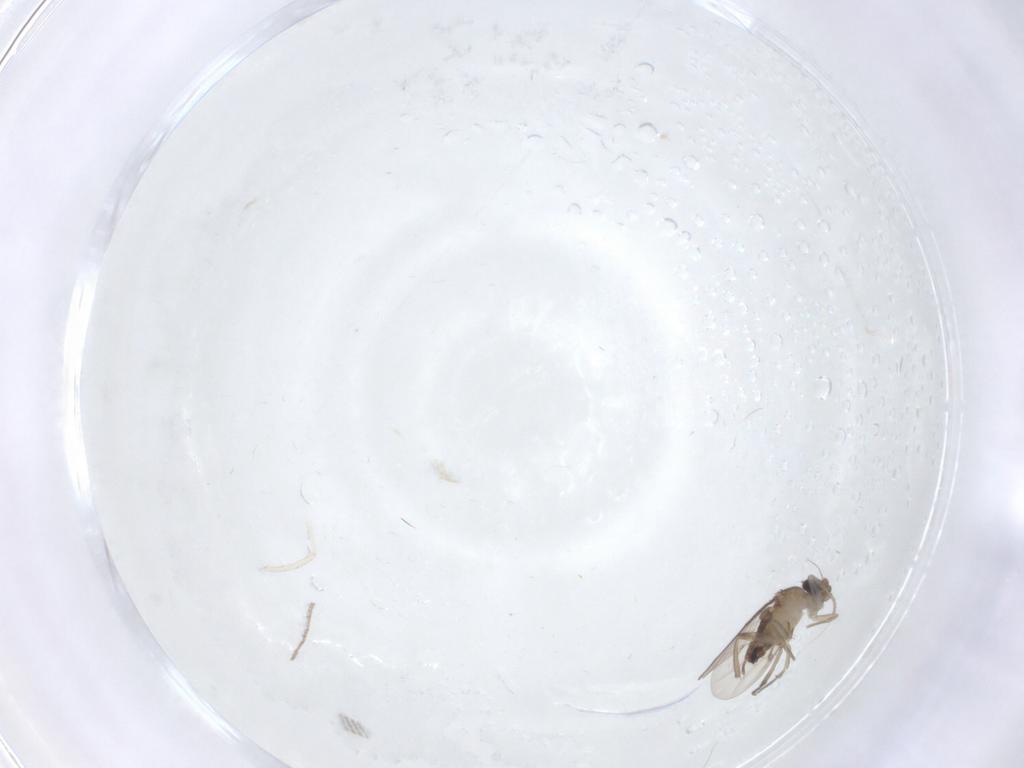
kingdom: Animalia
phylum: Arthropoda
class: Insecta
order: Diptera
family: Phoridae
